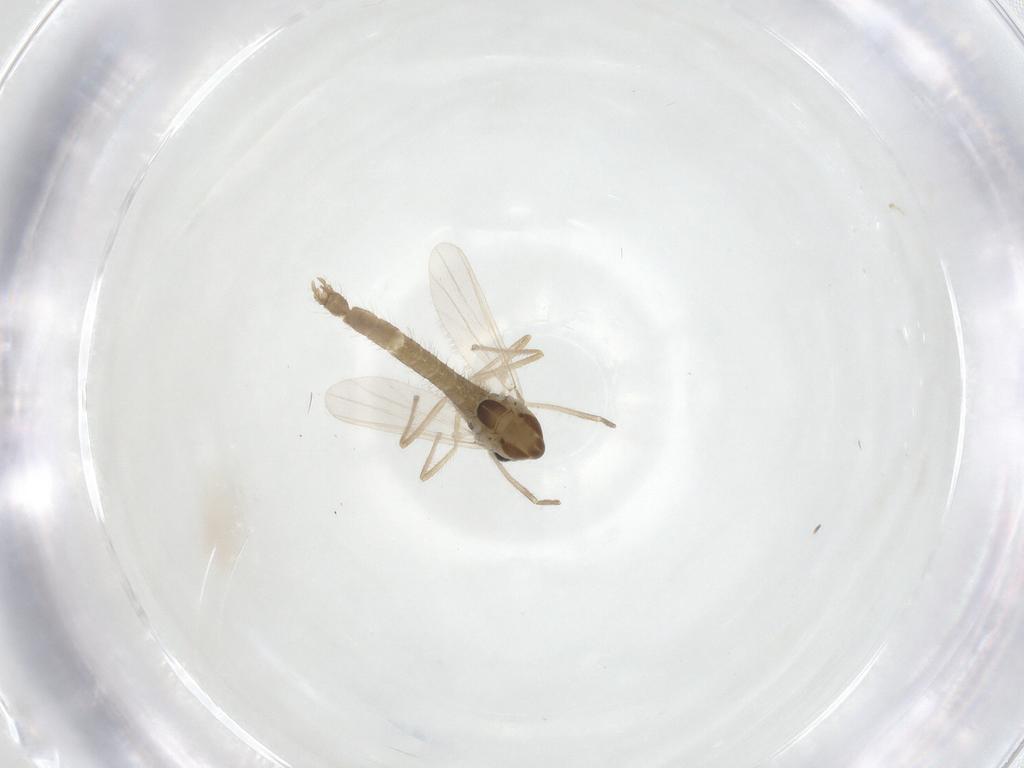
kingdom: Animalia
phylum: Arthropoda
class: Insecta
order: Diptera
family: Chironomidae
